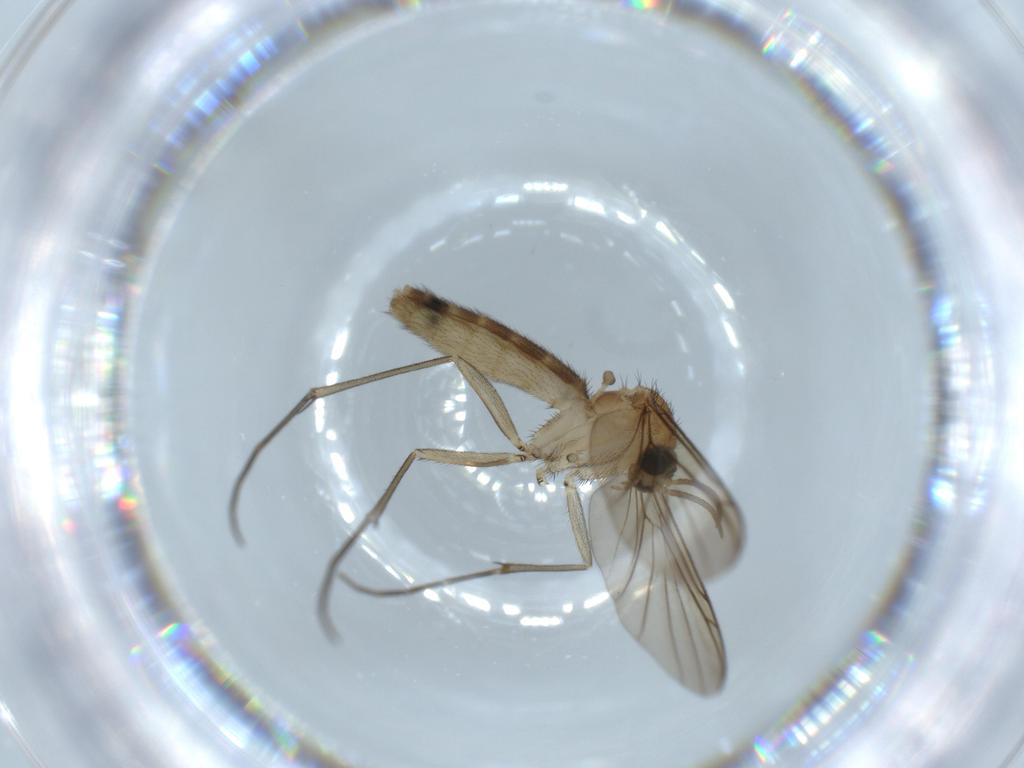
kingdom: Animalia
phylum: Arthropoda
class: Insecta
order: Diptera
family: Keroplatidae
